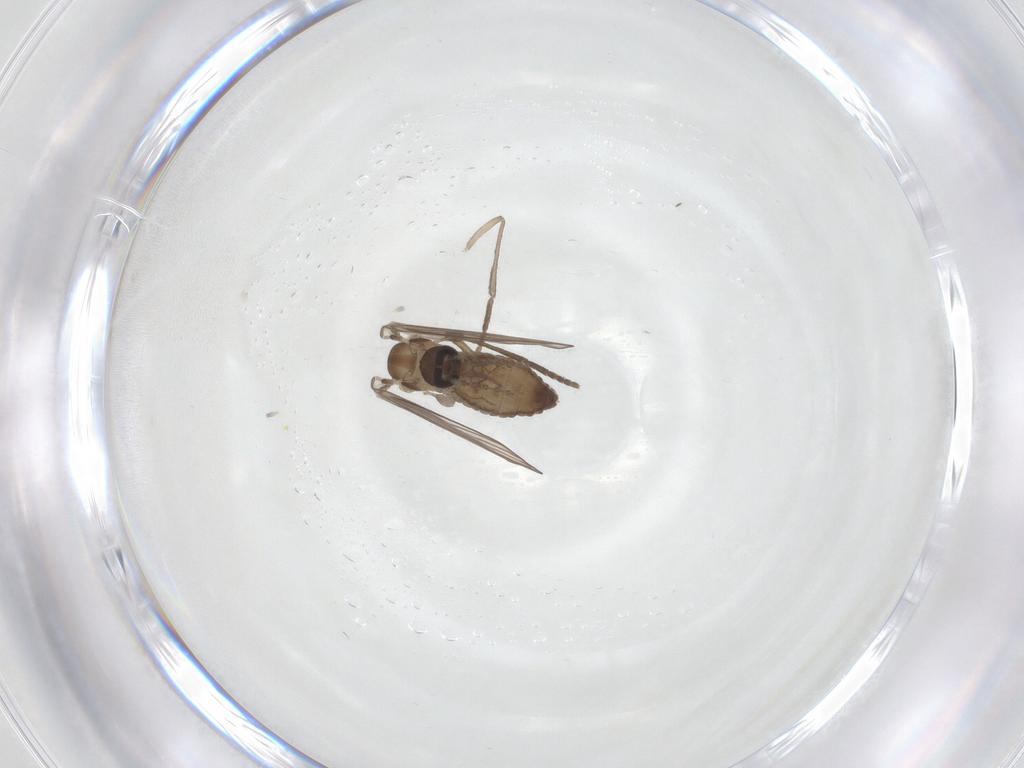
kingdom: Animalia
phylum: Arthropoda
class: Insecta
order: Diptera
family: Psychodidae
